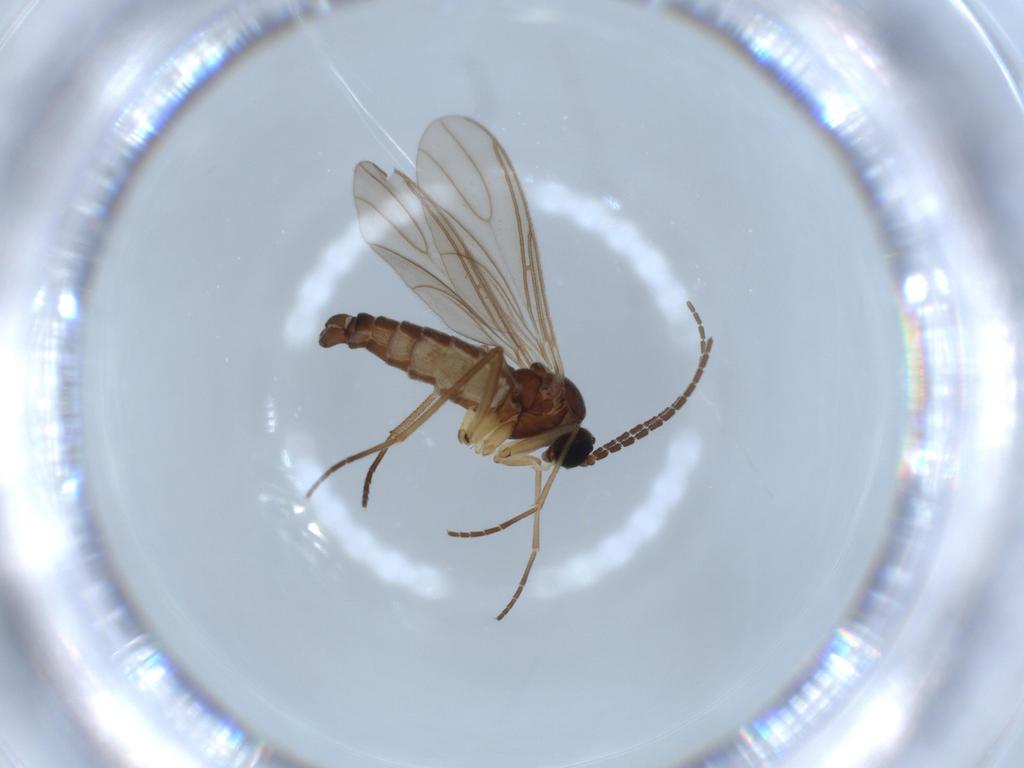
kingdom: Animalia
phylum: Arthropoda
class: Insecta
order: Diptera
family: Sciaridae
